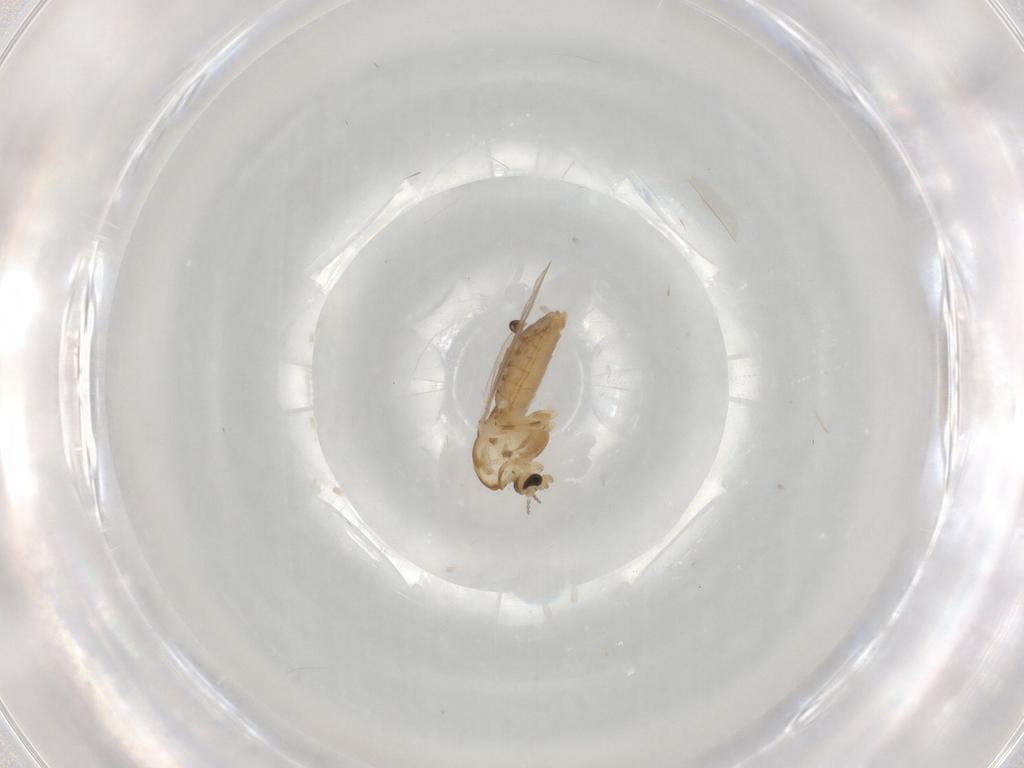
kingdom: Animalia
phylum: Arthropoda
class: Insecta
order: Diptera
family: Chironomidae
